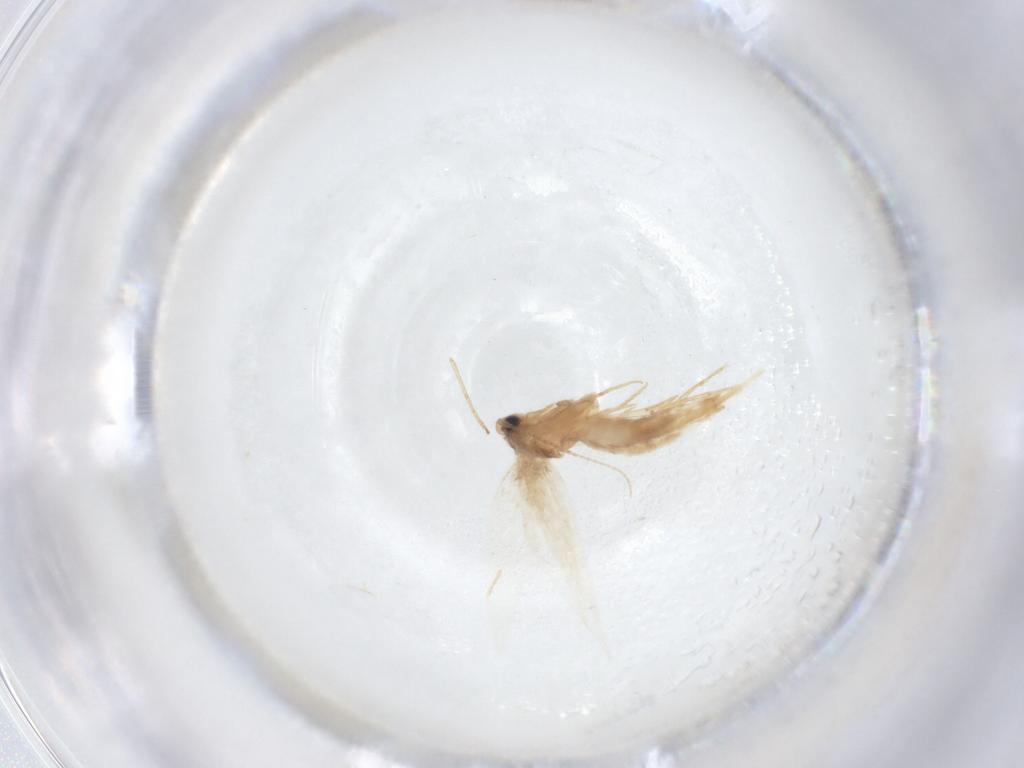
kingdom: Animalia
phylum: Arthropoda
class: Insecta
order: Lepidoptera
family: Tineidae
